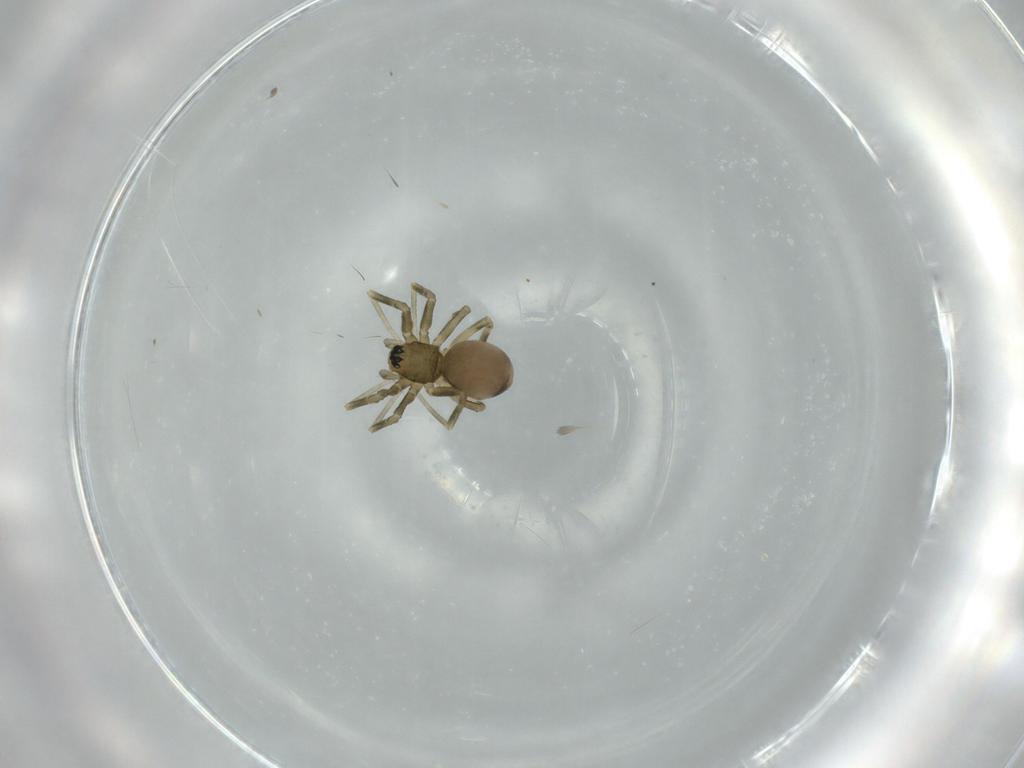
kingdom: Animalia
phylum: Arthropoda
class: Arachnida
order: Araneae
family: Linyphiidae
